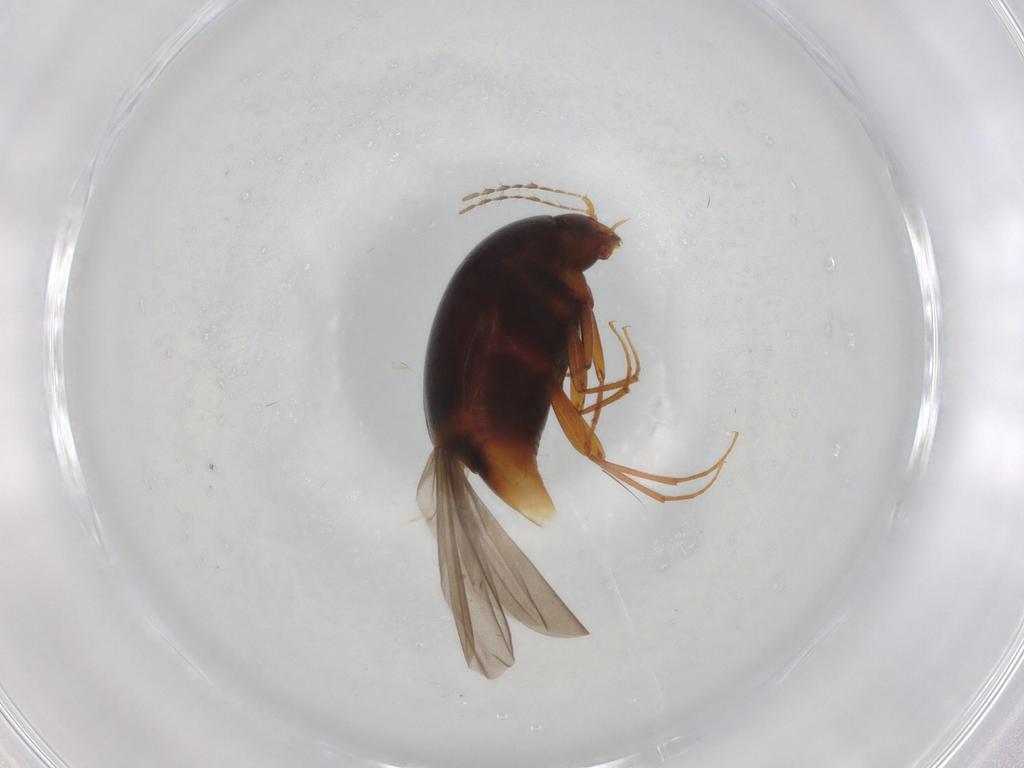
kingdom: Animalia
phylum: Arthropoda
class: Insecta
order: Coleoptera
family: Staphylinidae
